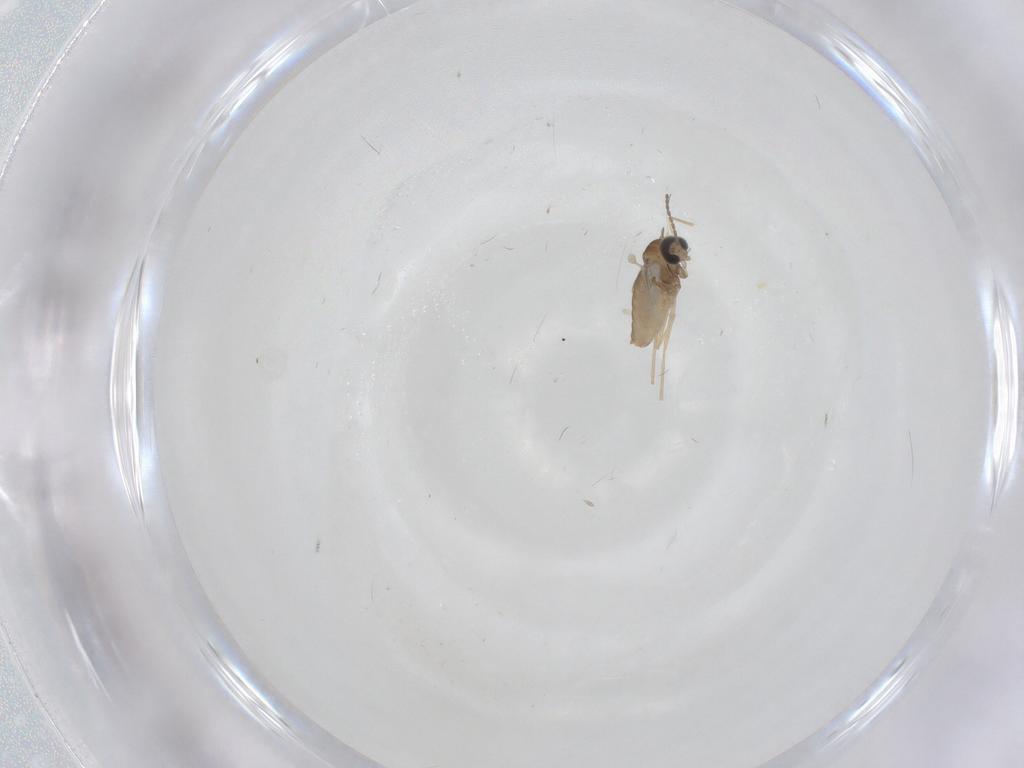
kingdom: Animalia
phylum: Arthropoda
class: Insecta
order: Diptera
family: Cecidomyiidae
